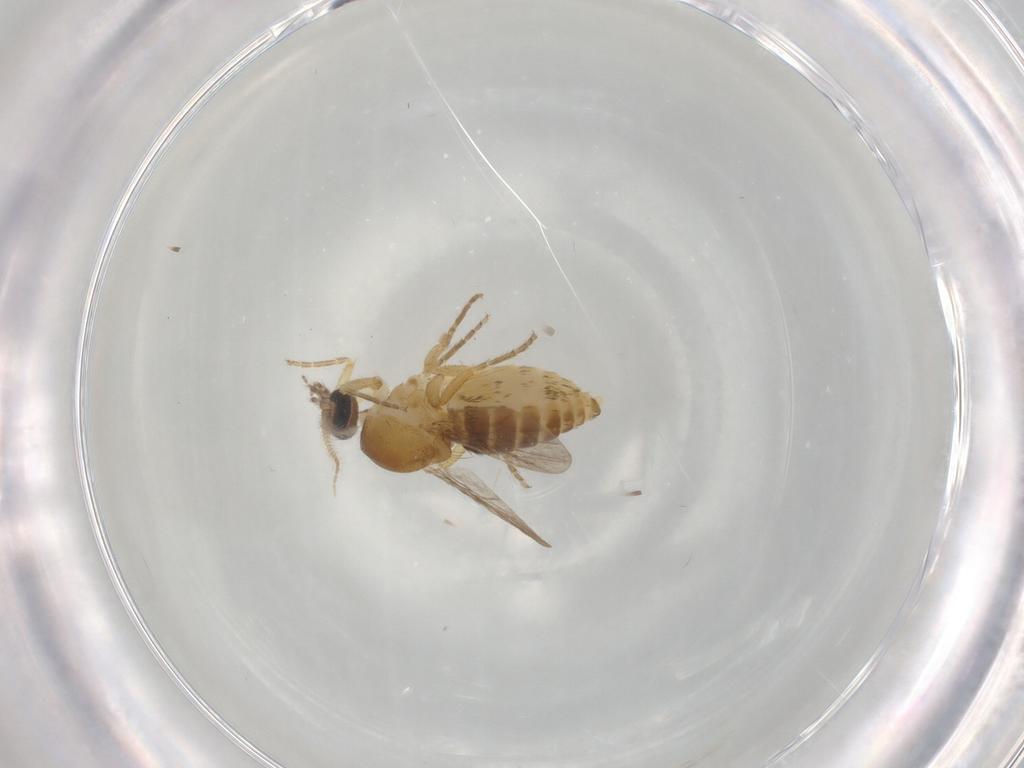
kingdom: Animalia
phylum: Arthropoda
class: Insecta
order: Diptera
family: Ceratopogonidae
